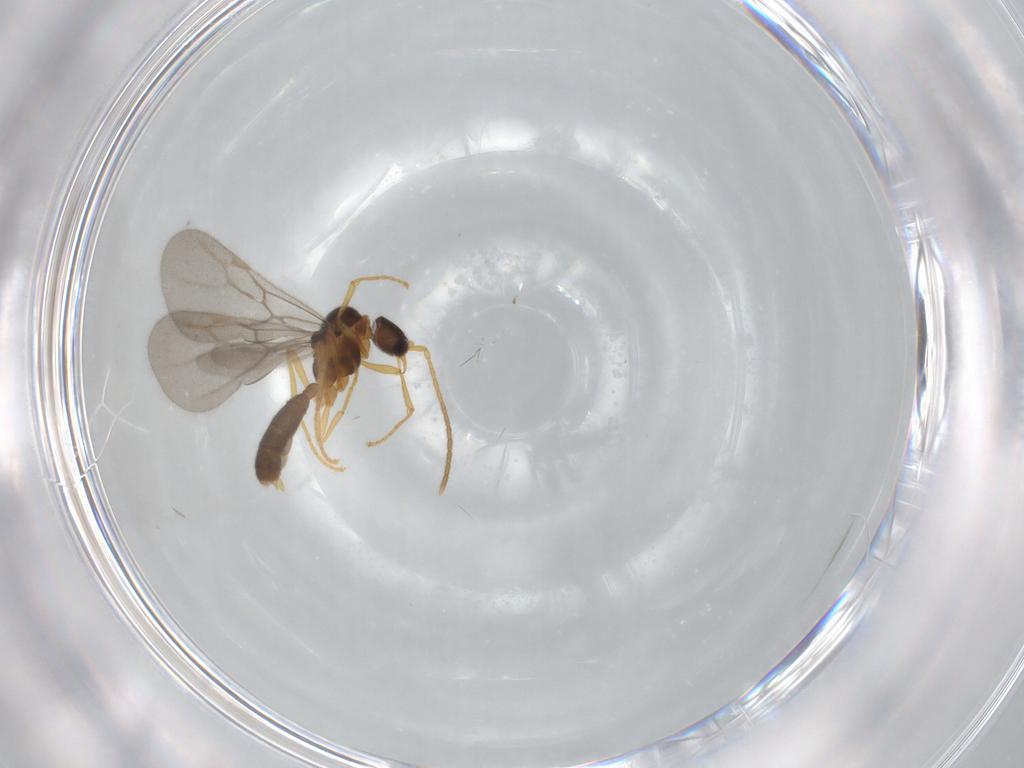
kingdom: Animalia
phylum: Arthropoda
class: Insecta
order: Hymenoptera
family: Formicidae
